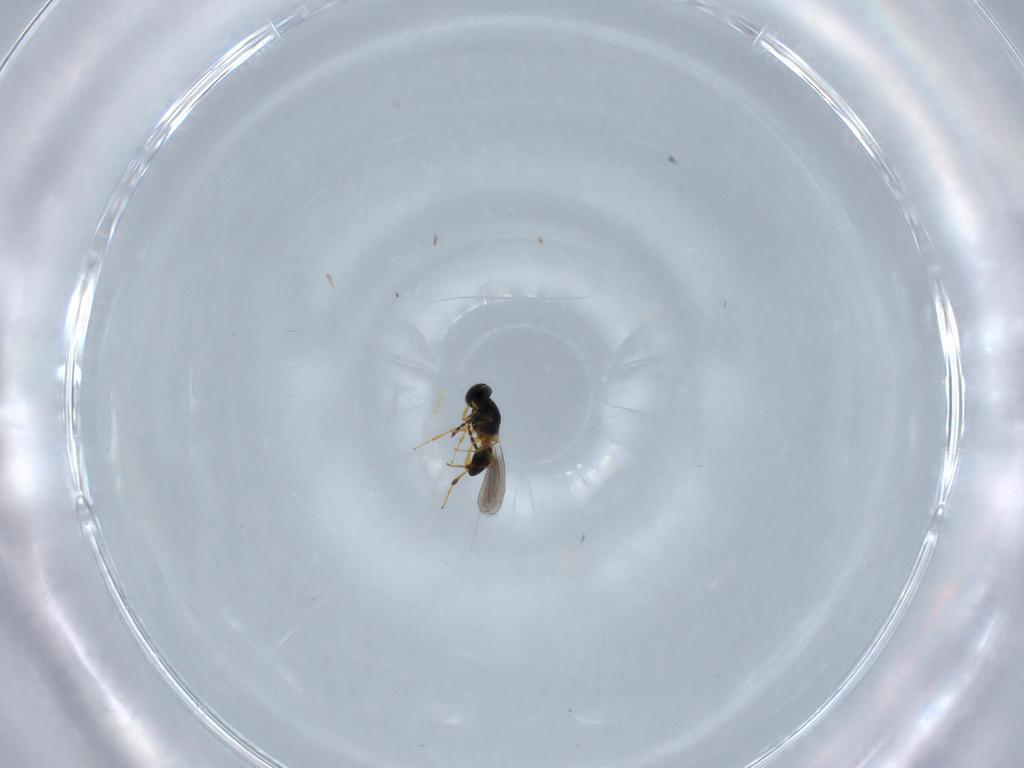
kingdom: Animalia
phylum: Arthropoda
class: Insecta
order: Hymenoptera
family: Platygastridae
